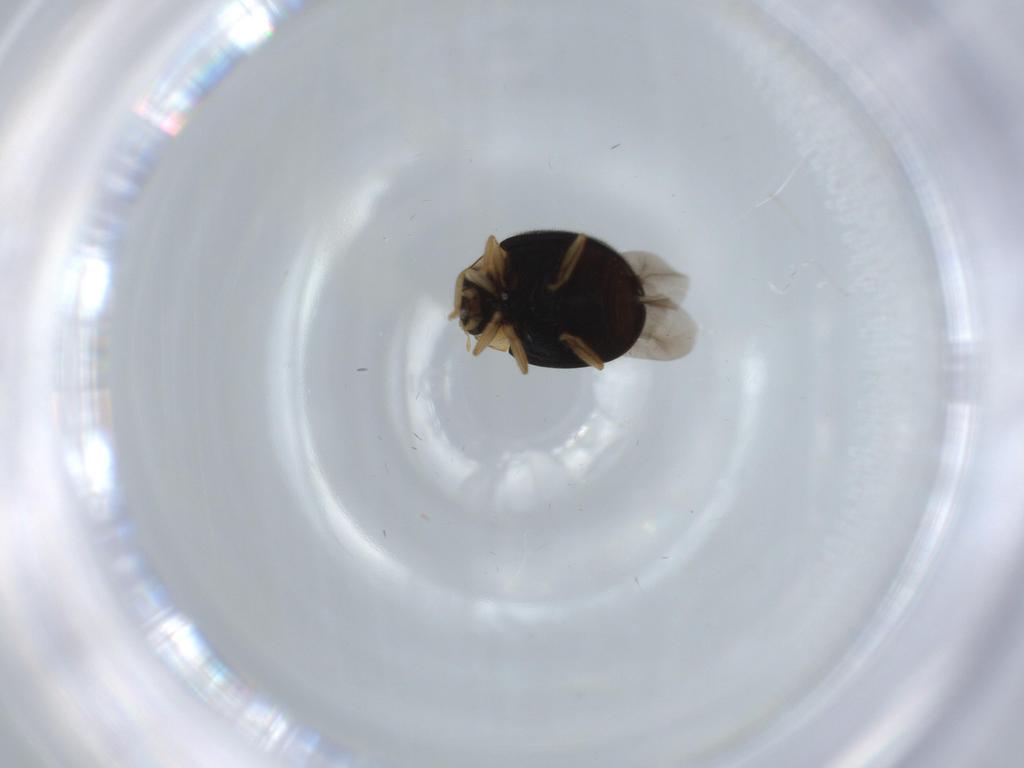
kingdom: Animalia
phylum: Arthropoda
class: Insecta
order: Coleoptera
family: Coccinellidae
